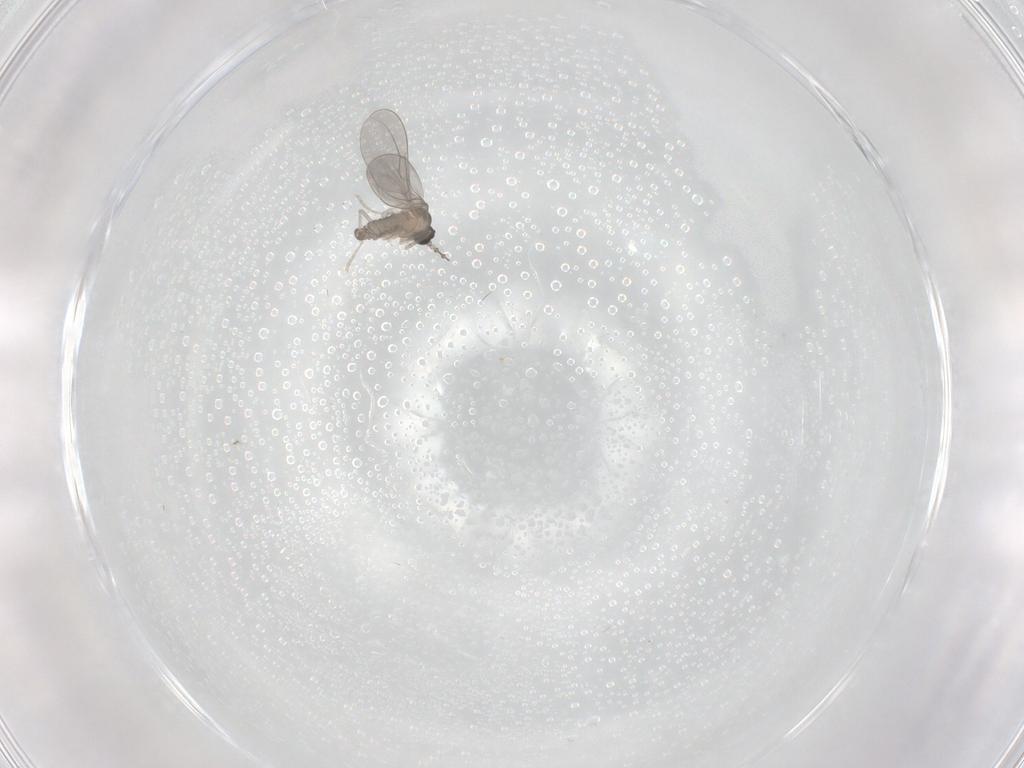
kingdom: Animalia
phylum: Arthropoda
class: Insecta
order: Diptera
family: Cecidomyiidae
